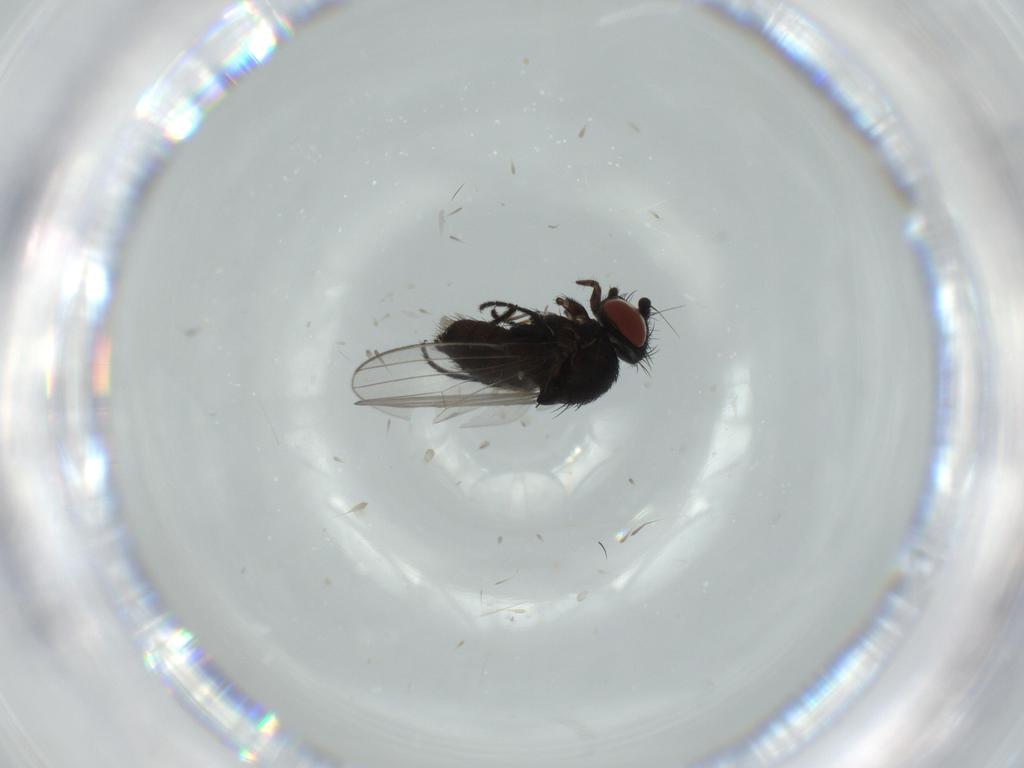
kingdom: Animalia
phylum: Arthropoda
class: Insecta
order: Diptera
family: Milichiidae
